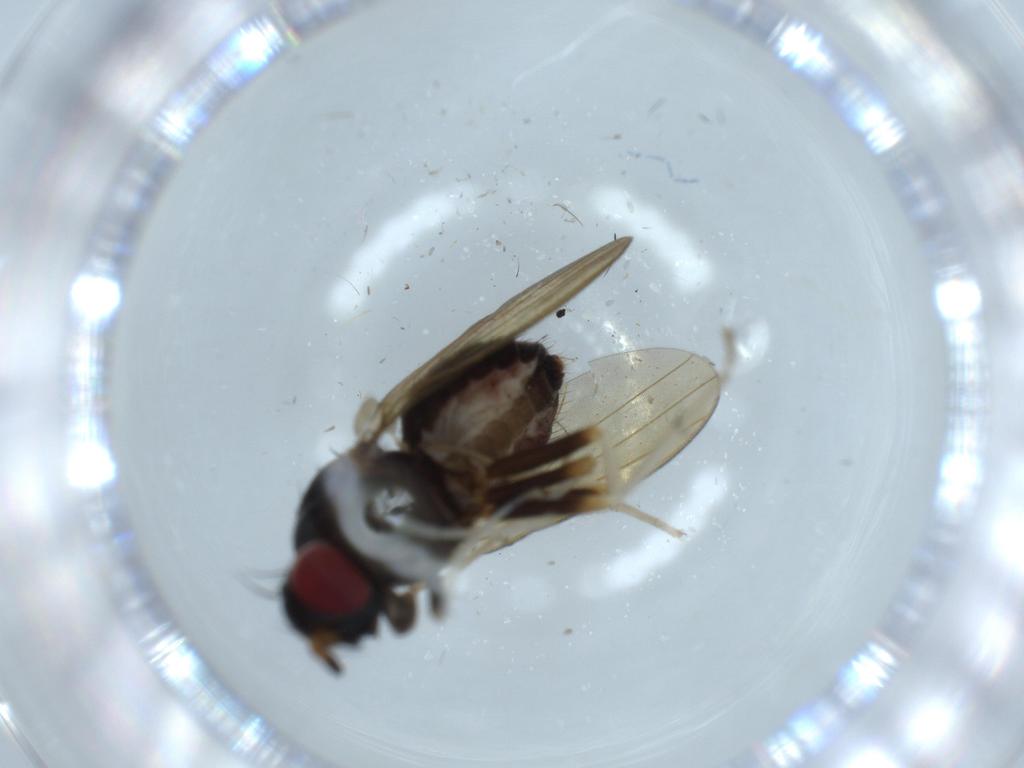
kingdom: Animalia
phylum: Arthropoda
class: Insecta
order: Diptera
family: Lauxaniidae
